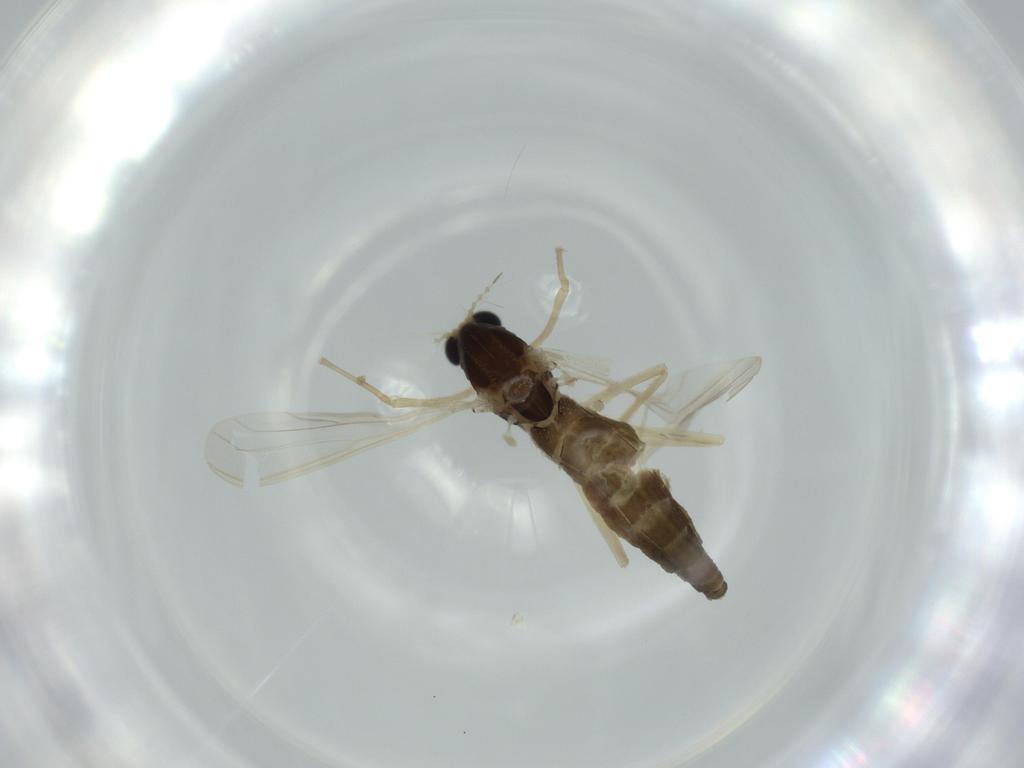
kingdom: Animalia
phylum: Arthropoda
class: Insecta
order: Diptera
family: Chironomidae
